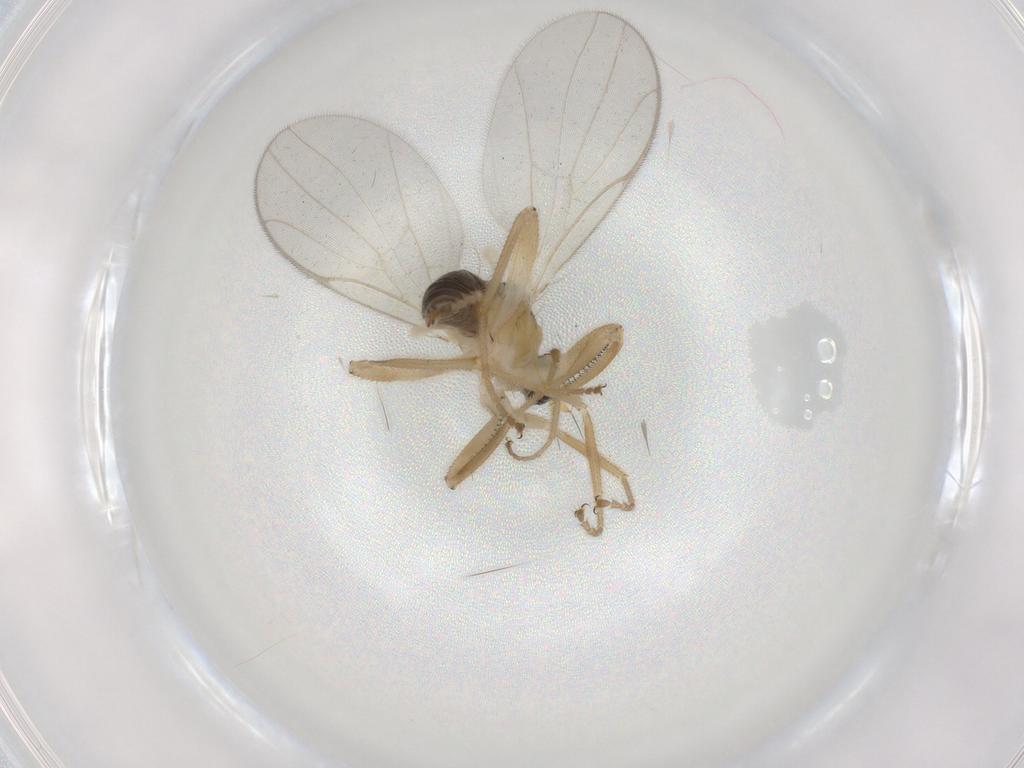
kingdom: Animalia
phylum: Arthropoda
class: Insecta
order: Diptera
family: Hybotidae
